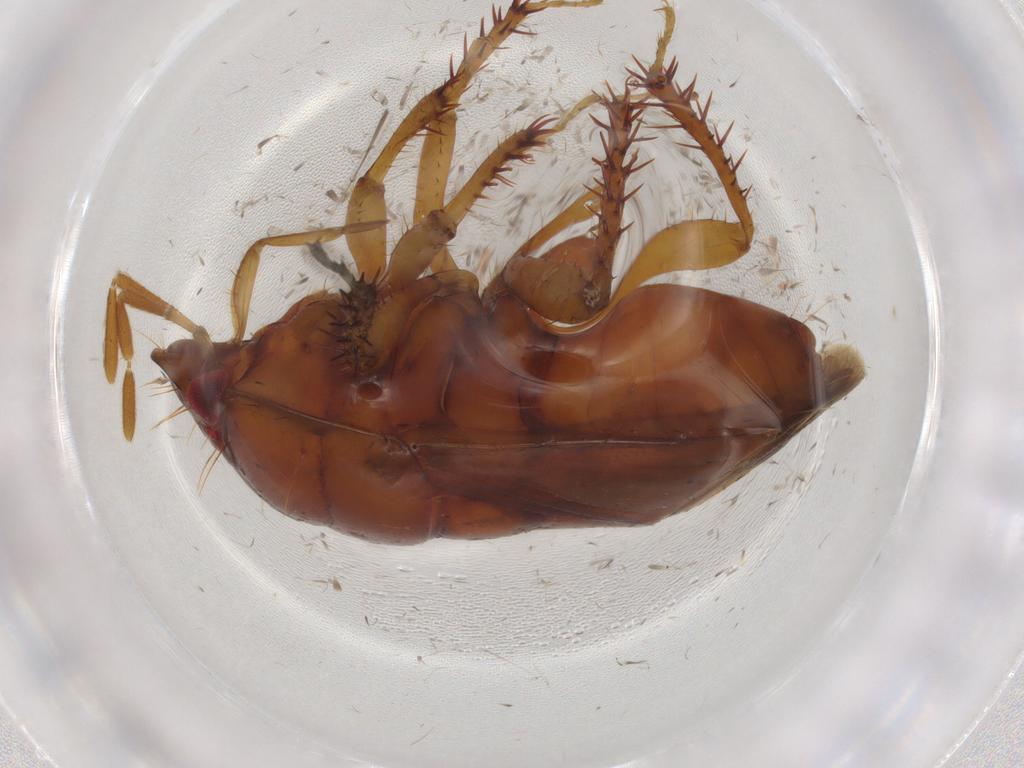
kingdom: Animalia
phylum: Arthropoda
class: Insecta
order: Hemiptera
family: Cydnidae
